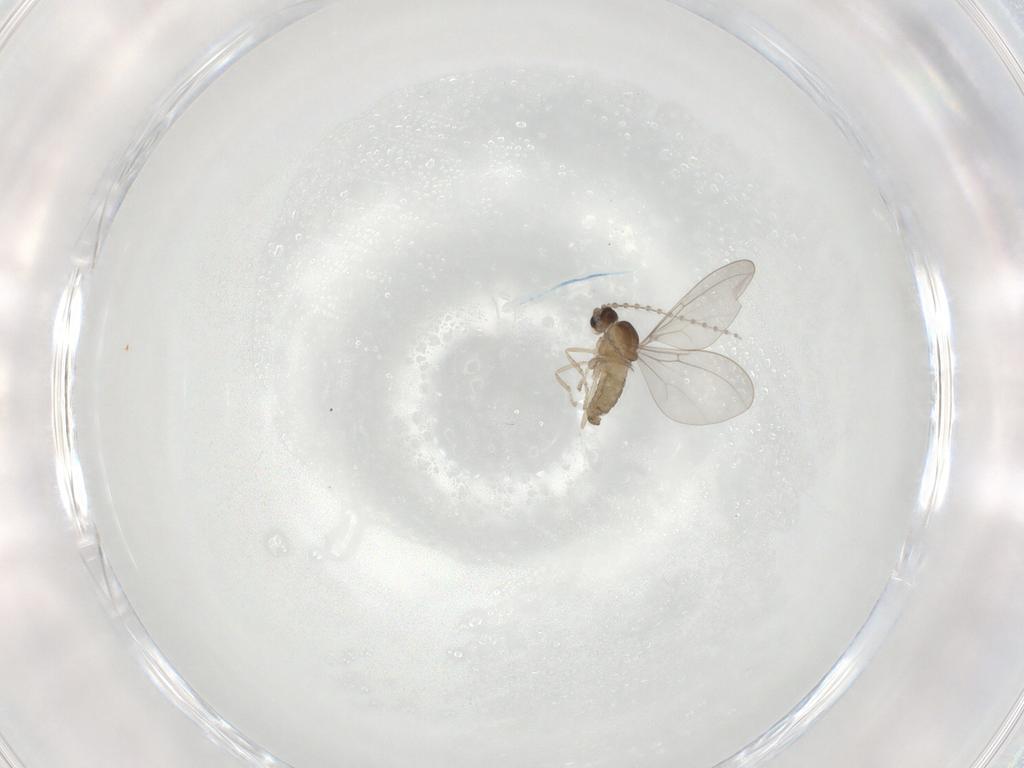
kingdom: Animalia
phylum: Arthropoda
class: Insecta
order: Diptera
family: Cecidomyiidae
